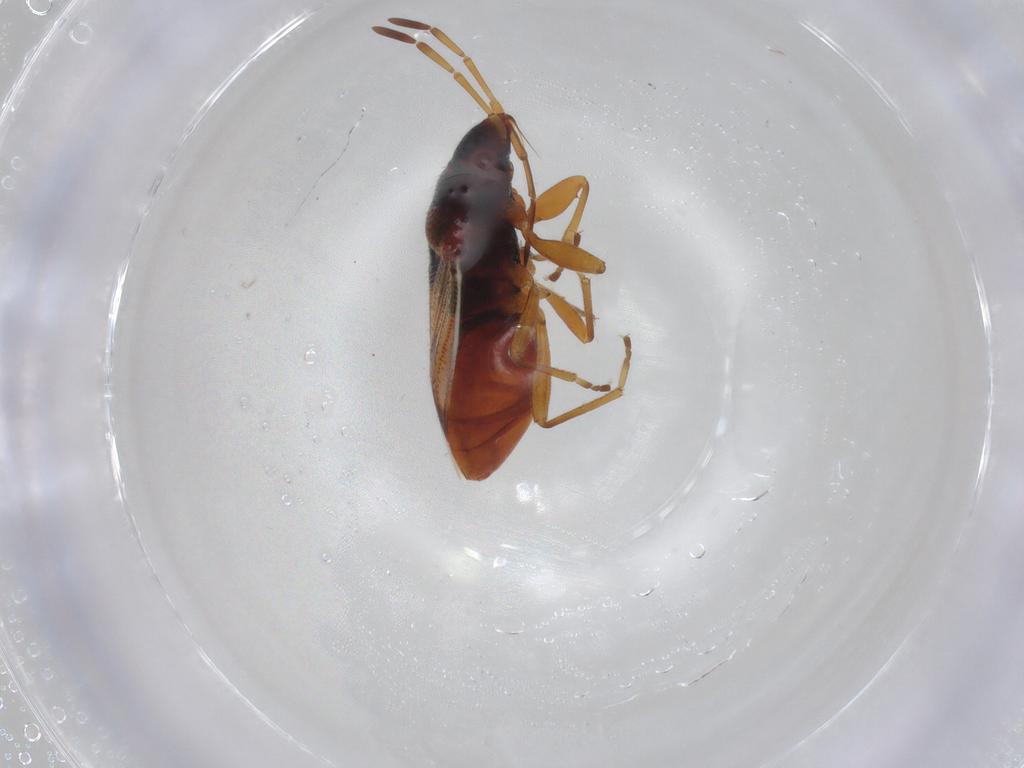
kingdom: Animalia
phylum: Arthropoda
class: Insecta
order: Hemiptera
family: Rhyparochromidae
